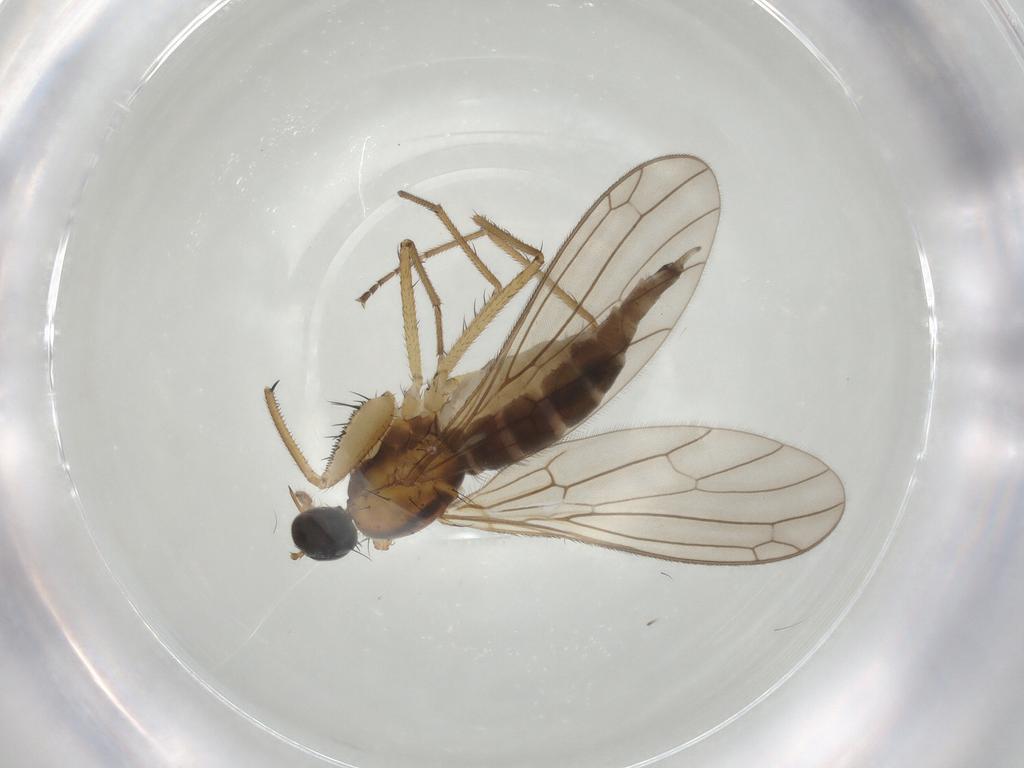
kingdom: Animalia
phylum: Arthropoda
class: Insecta
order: Diptera
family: Empididae
